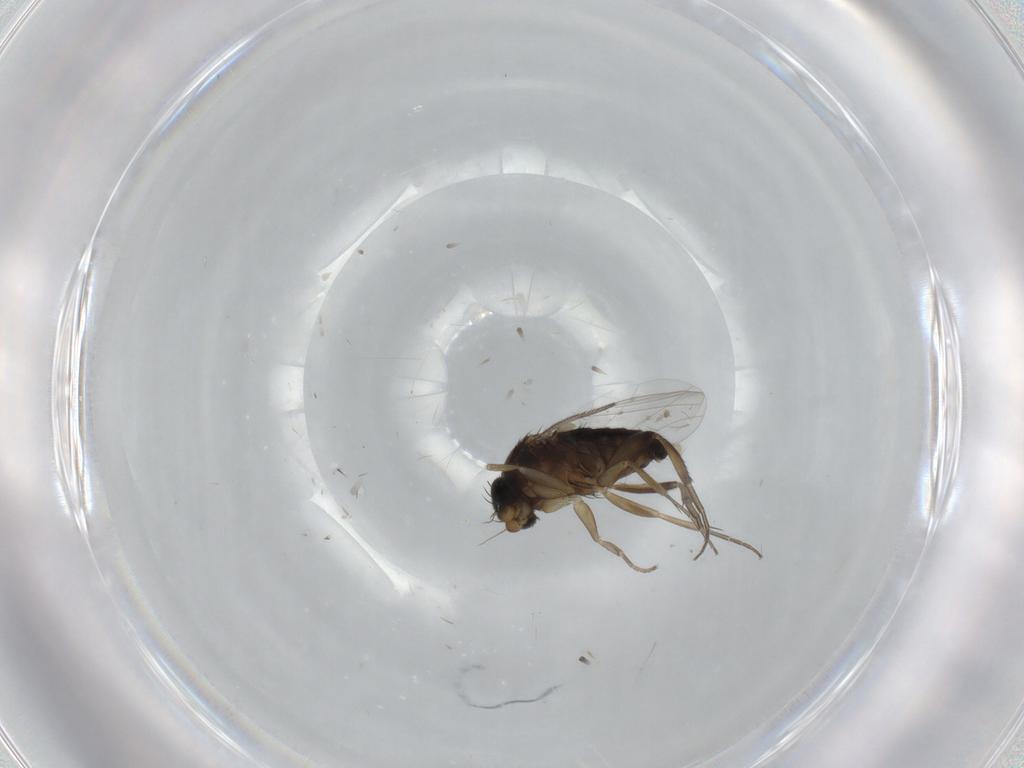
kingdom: Animalia
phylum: Arthropoda
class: Insecta
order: Diptera
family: Phoridae
